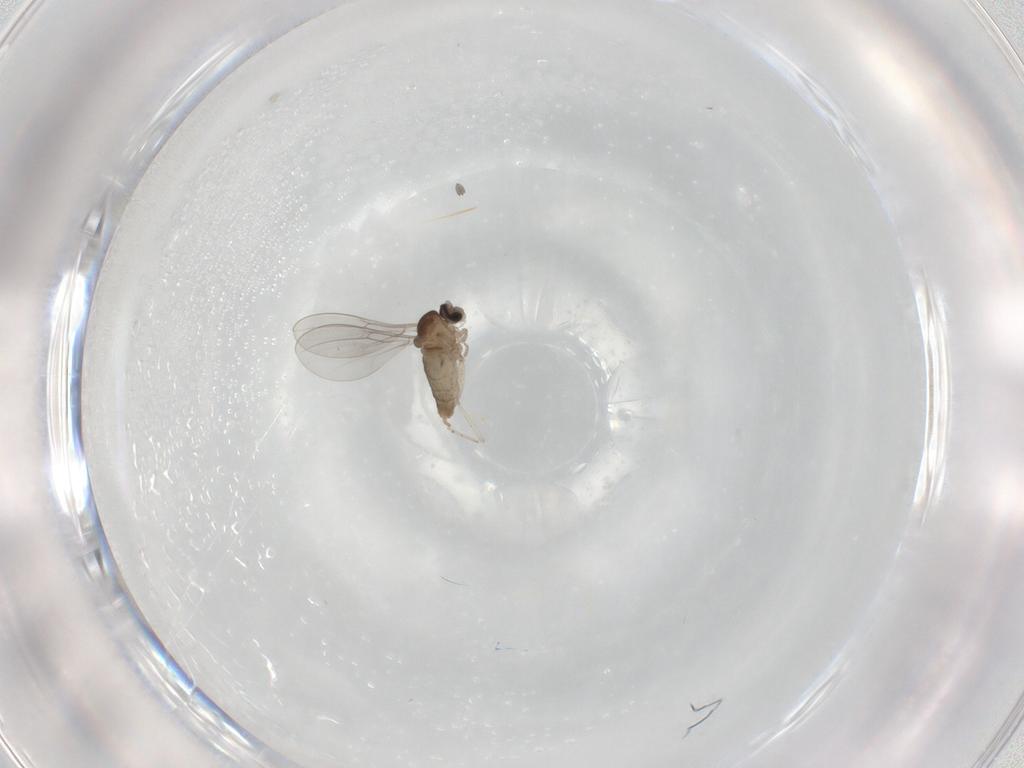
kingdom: Animalia
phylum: Arthropoda
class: Insecta
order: Diptera
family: Cecidomyiidae
